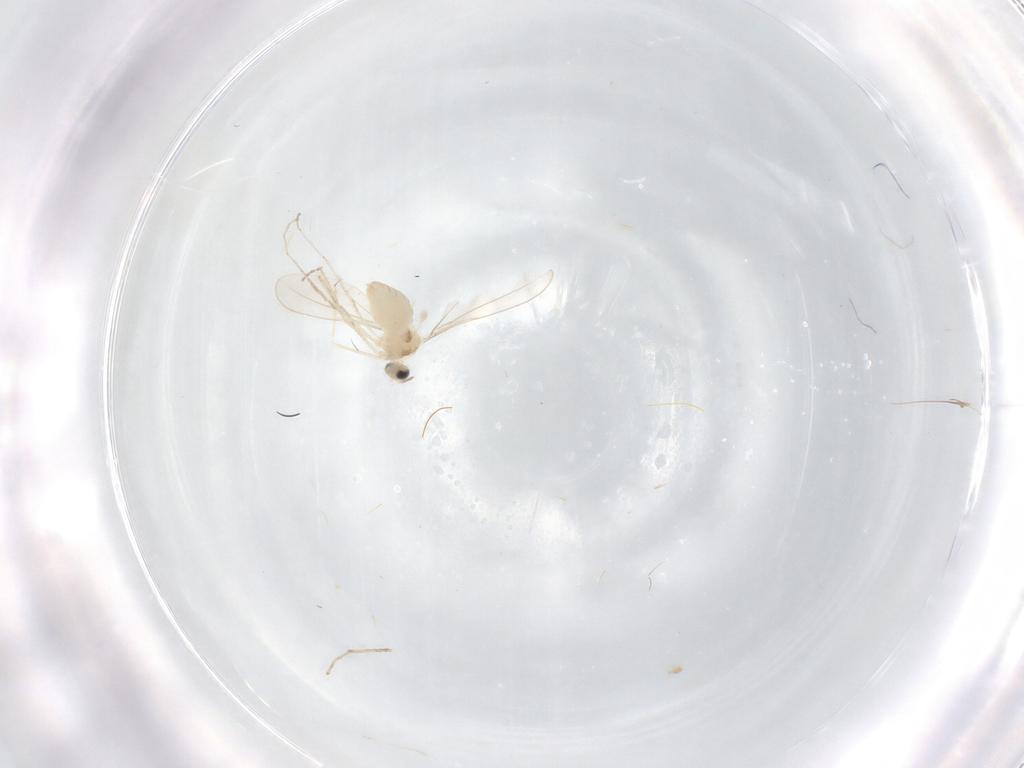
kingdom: Animalia
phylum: Arthropoda
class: Insecta
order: Diptera
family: Cecidomyiidae
